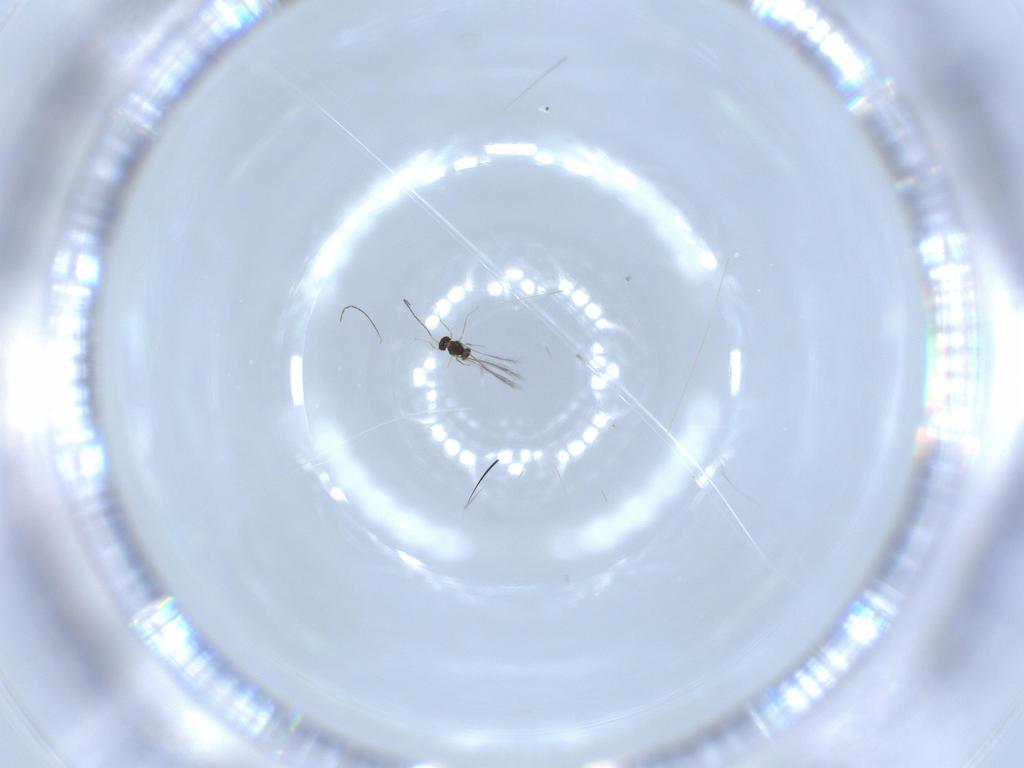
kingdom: Animalia
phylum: Arthropoda
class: Insecta
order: Hymenoptera
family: Mymaridae
